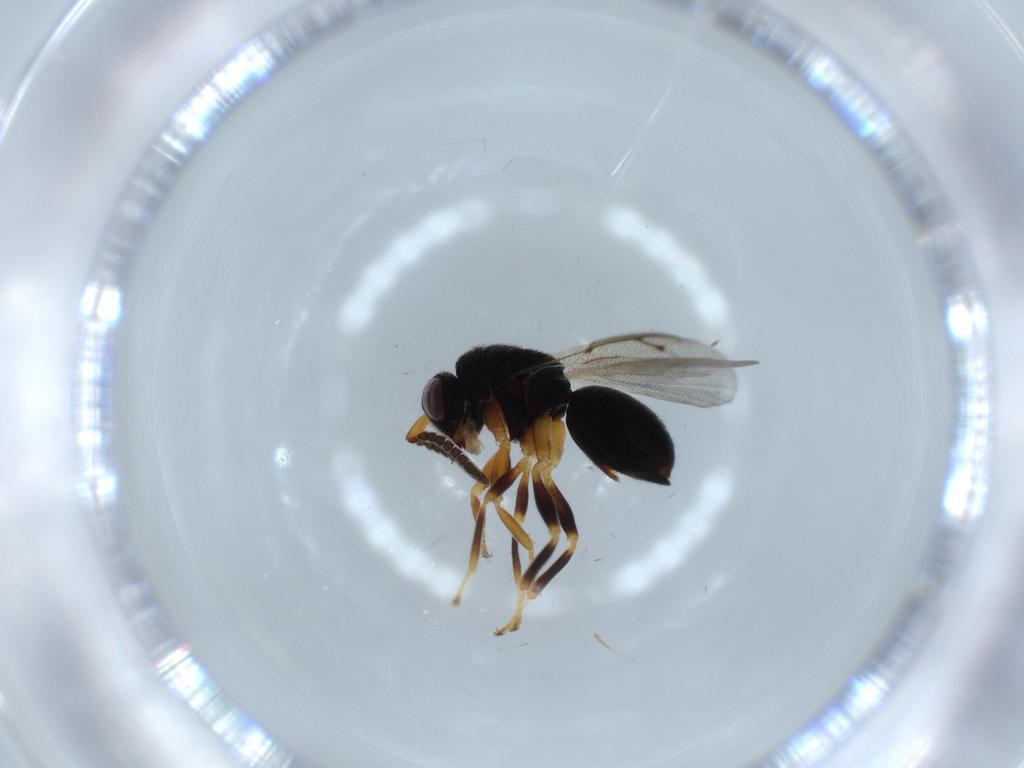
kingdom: Animalia
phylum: Arthropoda
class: Insecta
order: Hymenoptera
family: Eurytomidae
